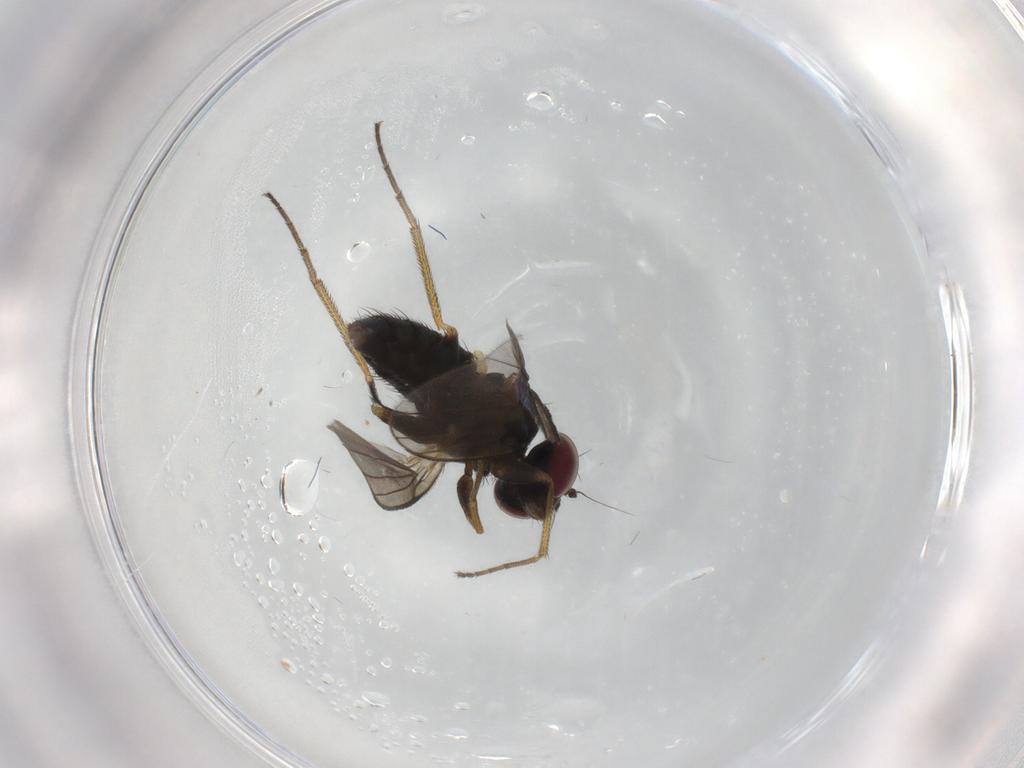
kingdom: Animalia
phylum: Arthropoda
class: Insecta
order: Diptera
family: Dolichopodidae
